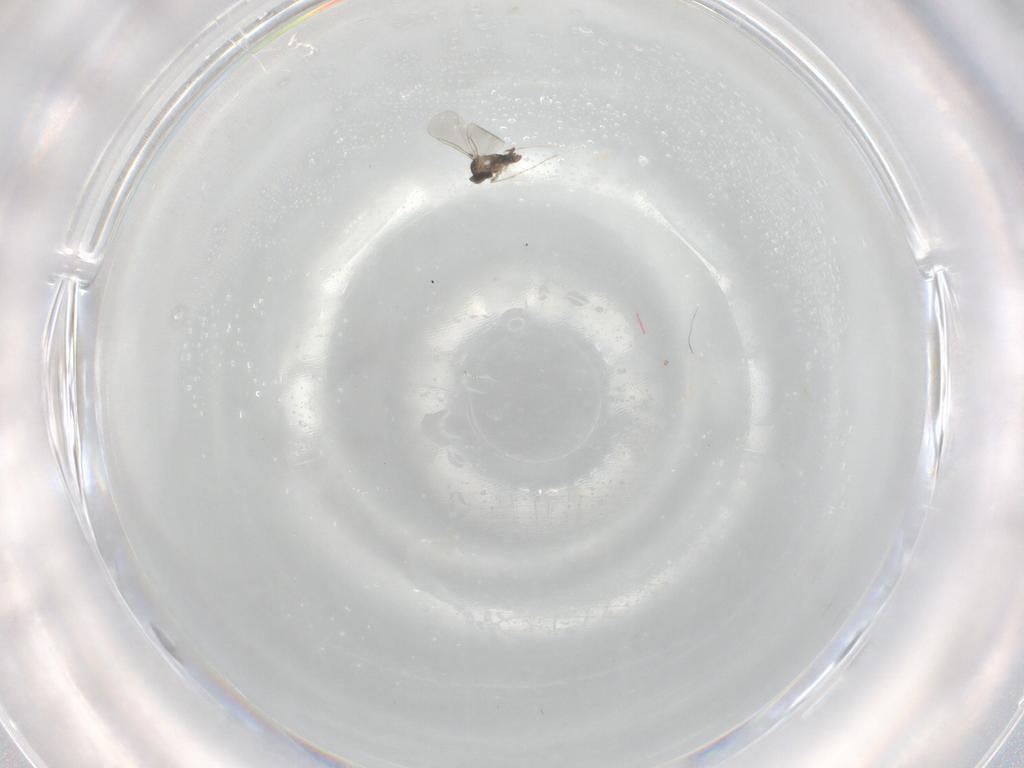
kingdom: Animalia
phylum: Arthropoda
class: Insecta
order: Diptera
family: Cecidomyiidae
